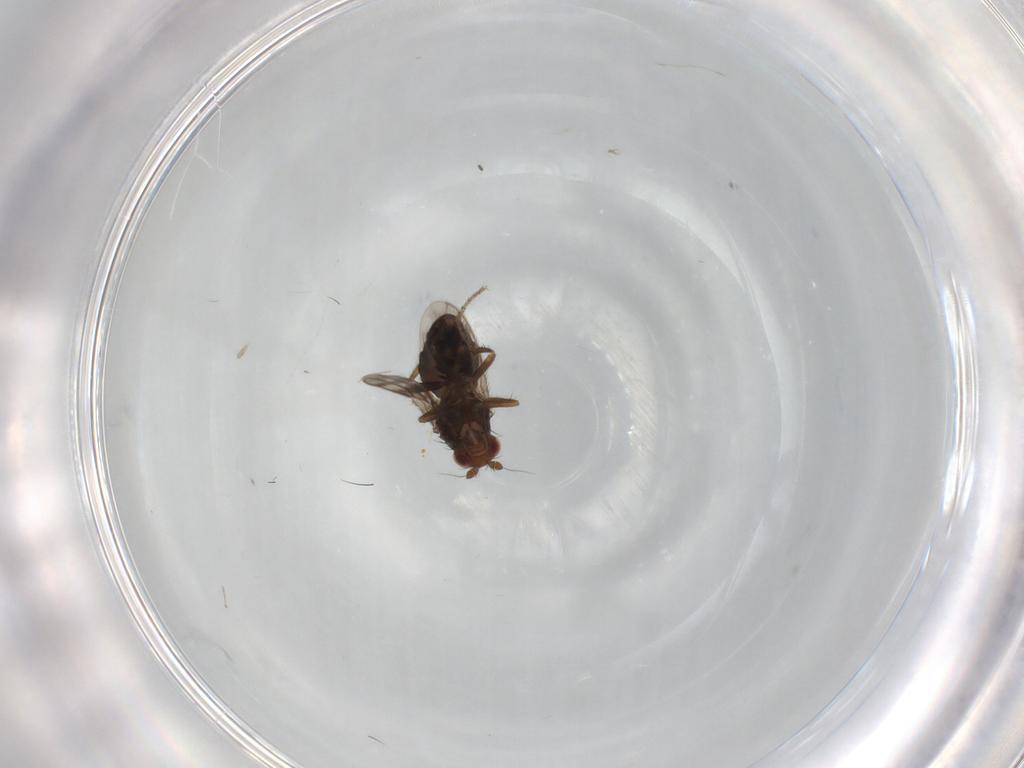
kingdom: Animalia
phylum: Arthropoda
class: Insecta
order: Diptera
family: Sphaeroceridae
